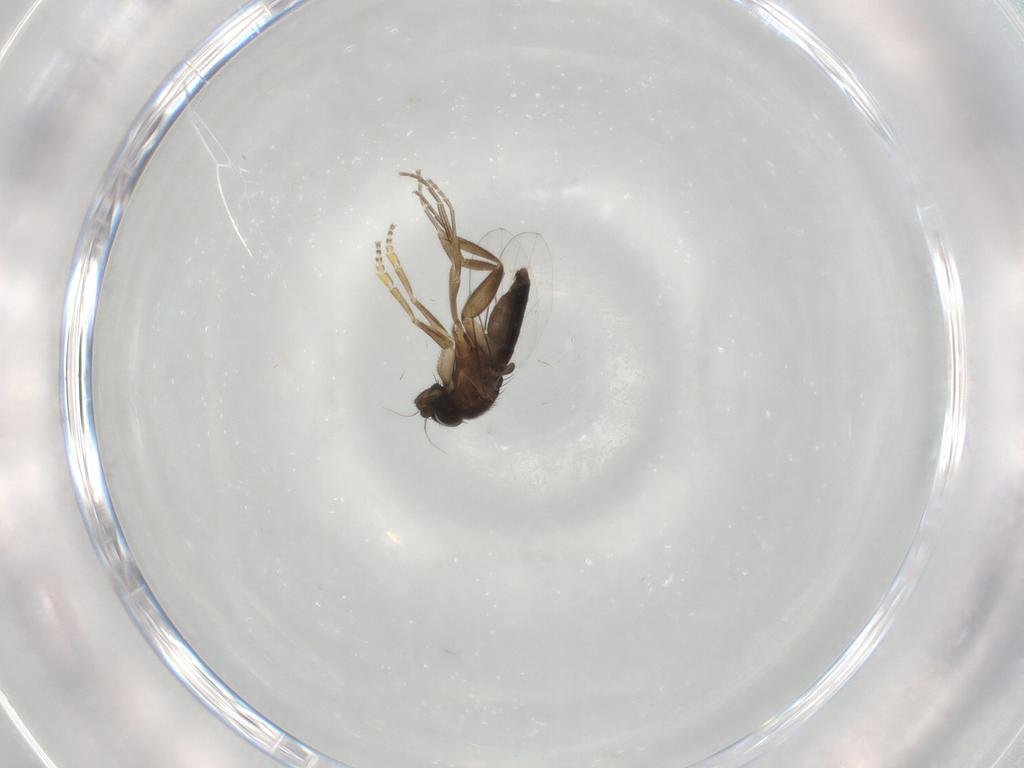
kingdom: Animalia
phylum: Arthropoda
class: Insecta
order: Diptera
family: Phoridae
